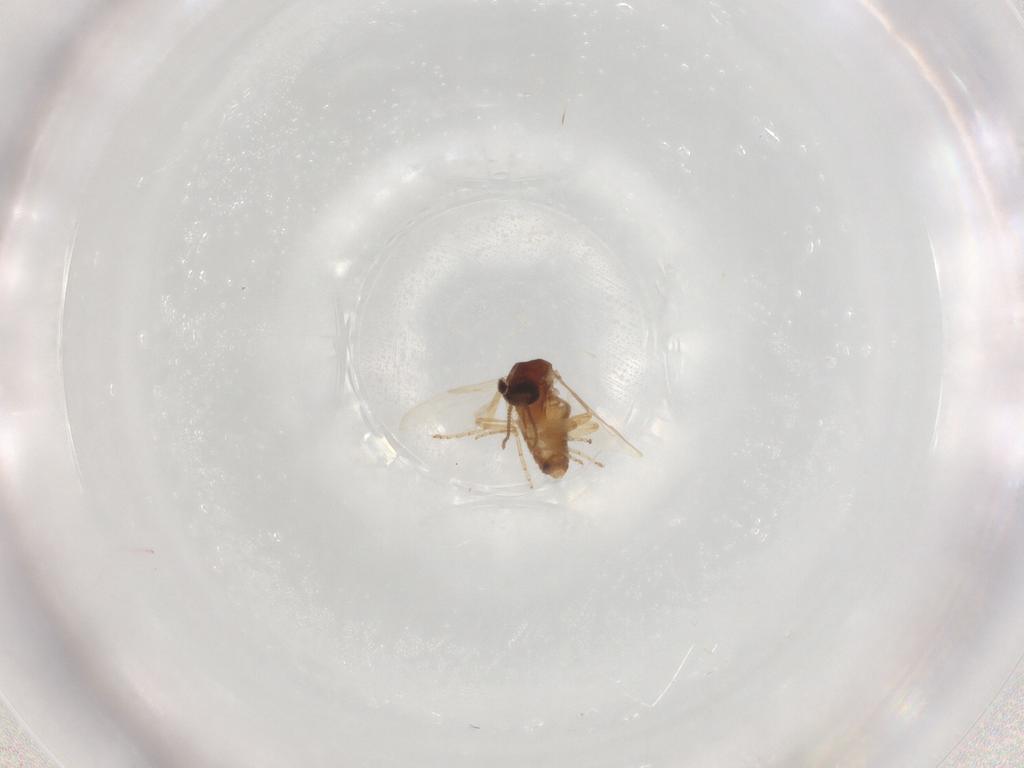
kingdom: Animalia
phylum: Arthropoda
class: Insecta
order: Diptera
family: Ceratopogonidae
